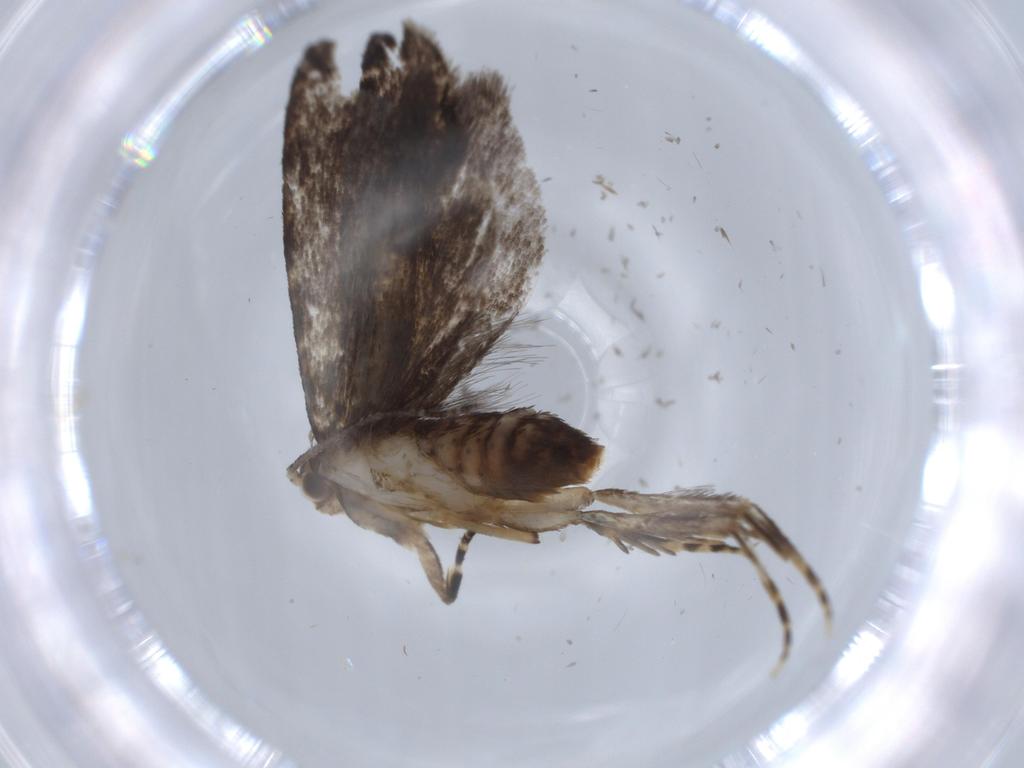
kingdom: Animalia
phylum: Arthropoda
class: Insecta
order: Lepidoptera
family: Tineidae
